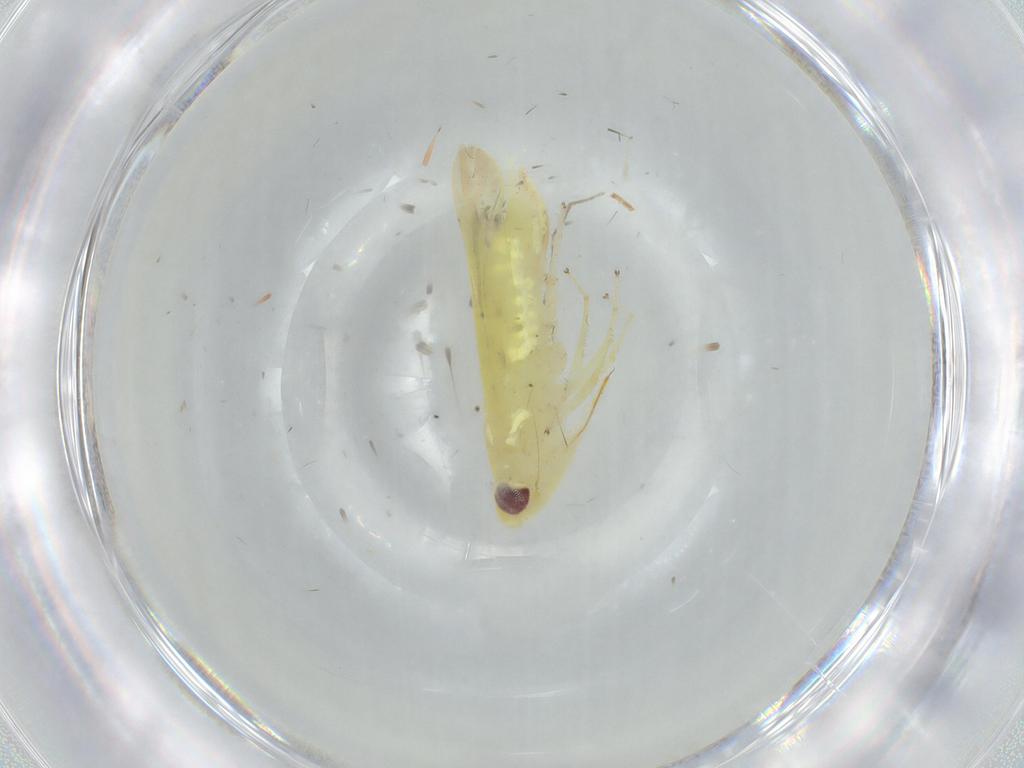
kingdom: Animalia
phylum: Arthropoda
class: Insecta
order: Hemiptera
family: Cicadellidae
